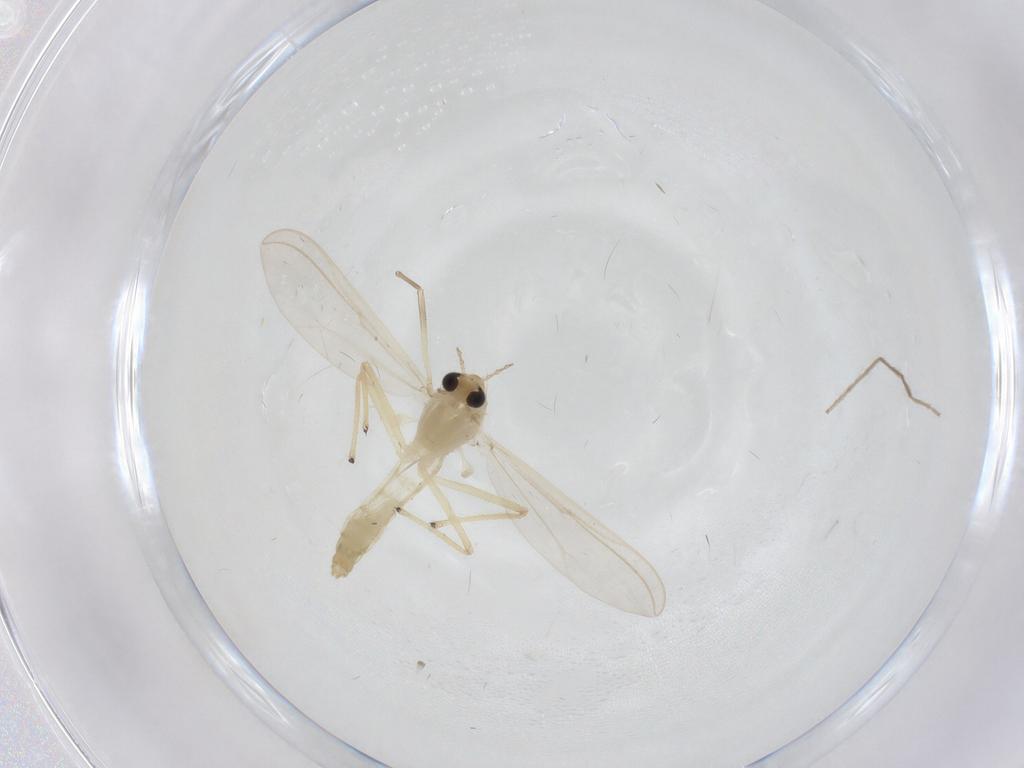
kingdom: Animalia
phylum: Arthropoda
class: Insecta
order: Diptera
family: Chironomidae
